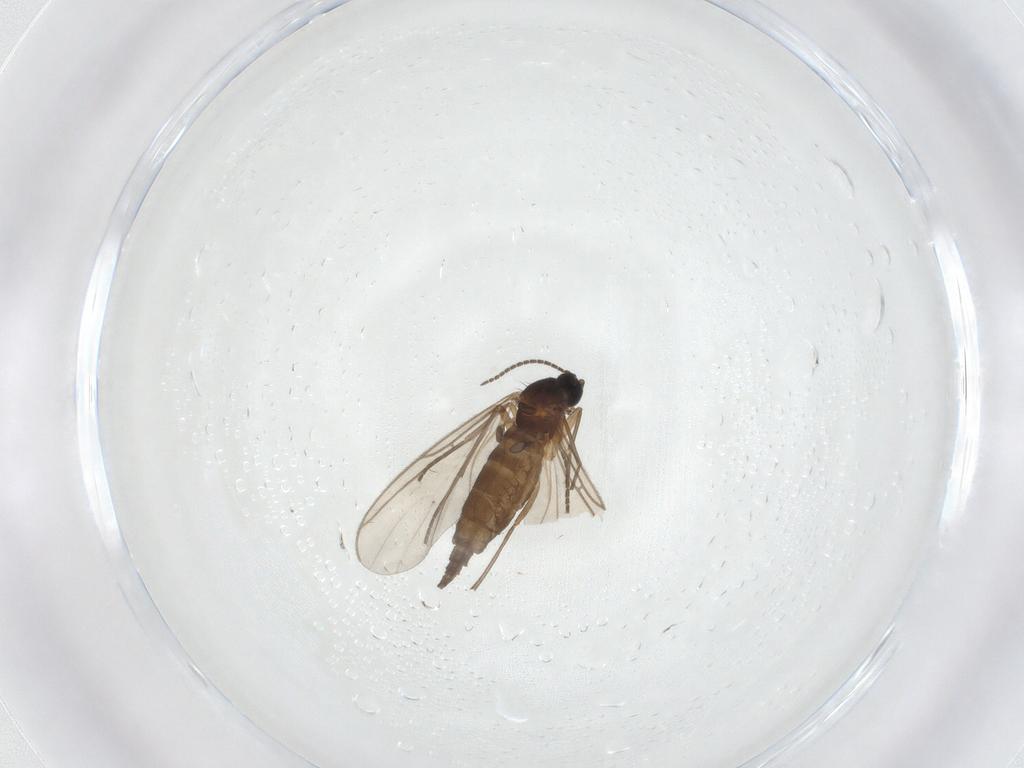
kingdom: Animalia
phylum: Arthropoda
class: Insecta
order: Diptera
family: Sciaridae
